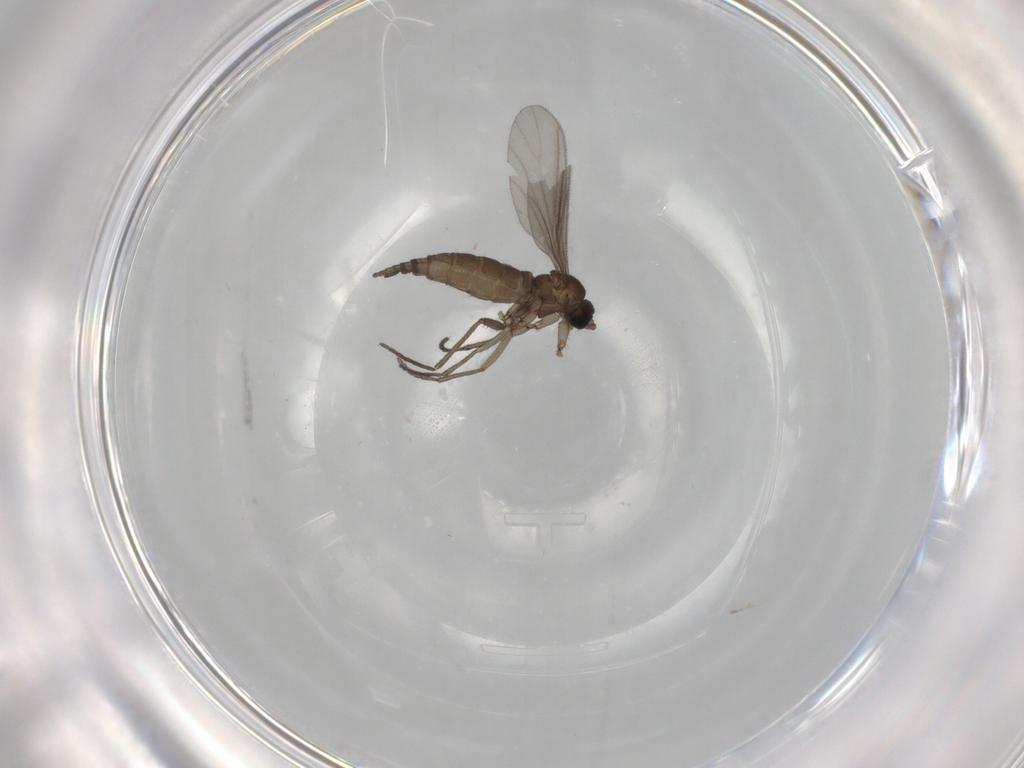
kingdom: Animalia
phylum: Arthropoda
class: Insecta
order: Diptera
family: Sciaridae
